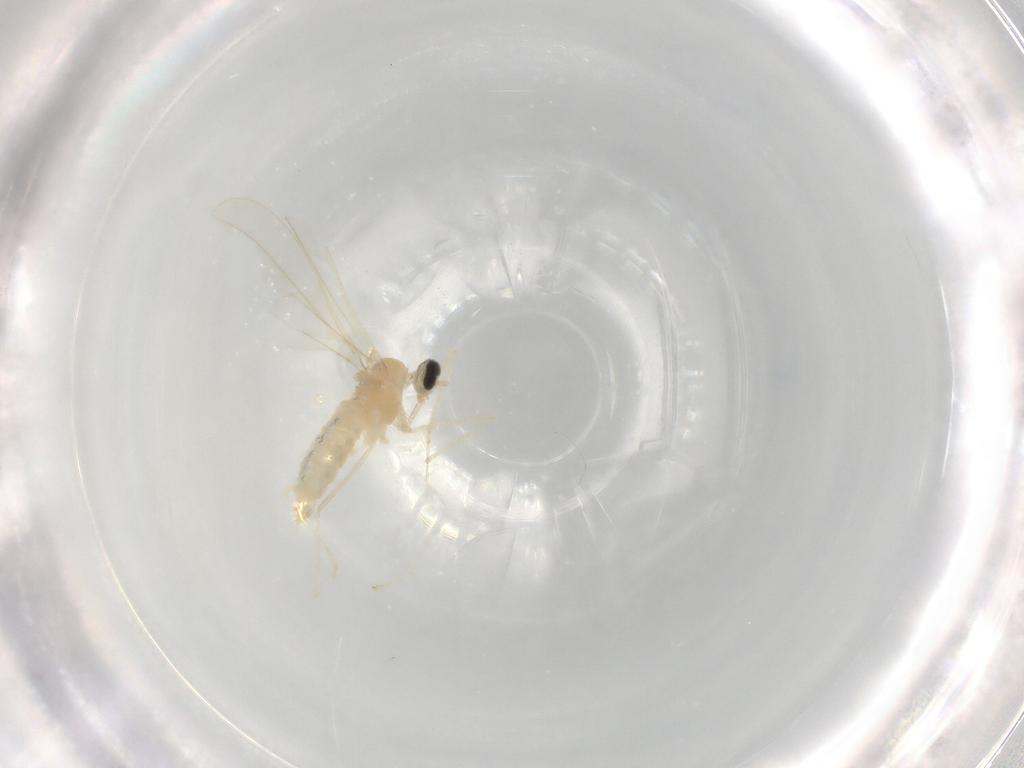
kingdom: Animalia
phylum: Arthropoda
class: Insecta
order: Diptera
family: Cecidomyiidae
